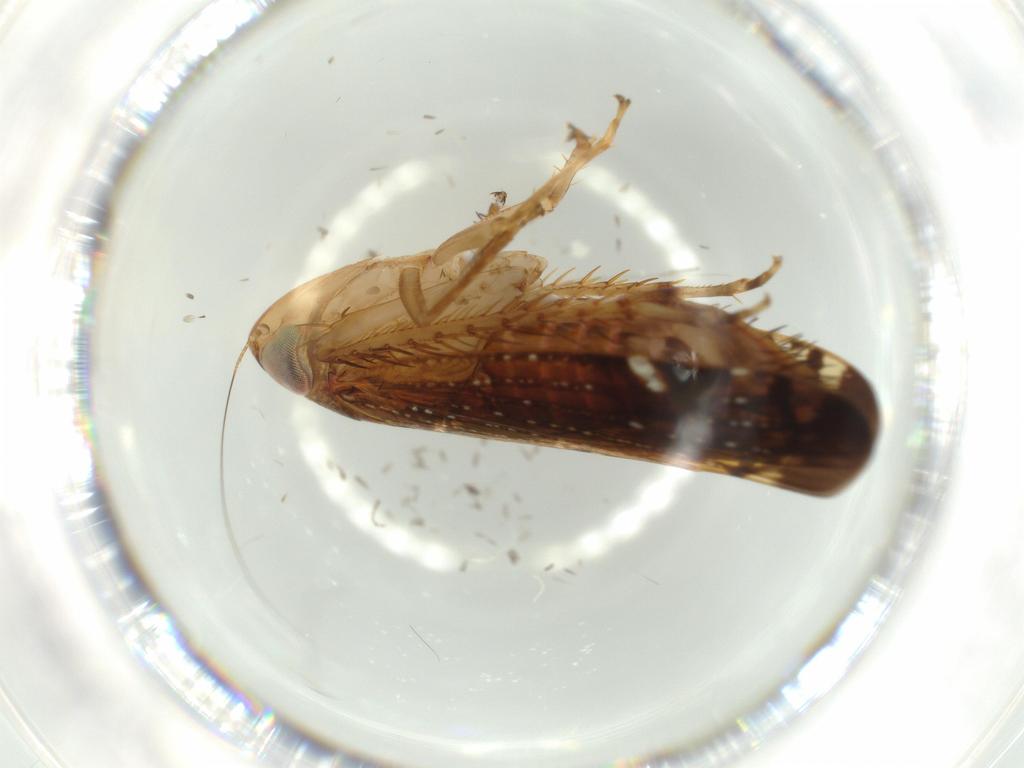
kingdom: Animalia
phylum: Arthropoda
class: Insecta
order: Hemiptera
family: Cicadellidae
